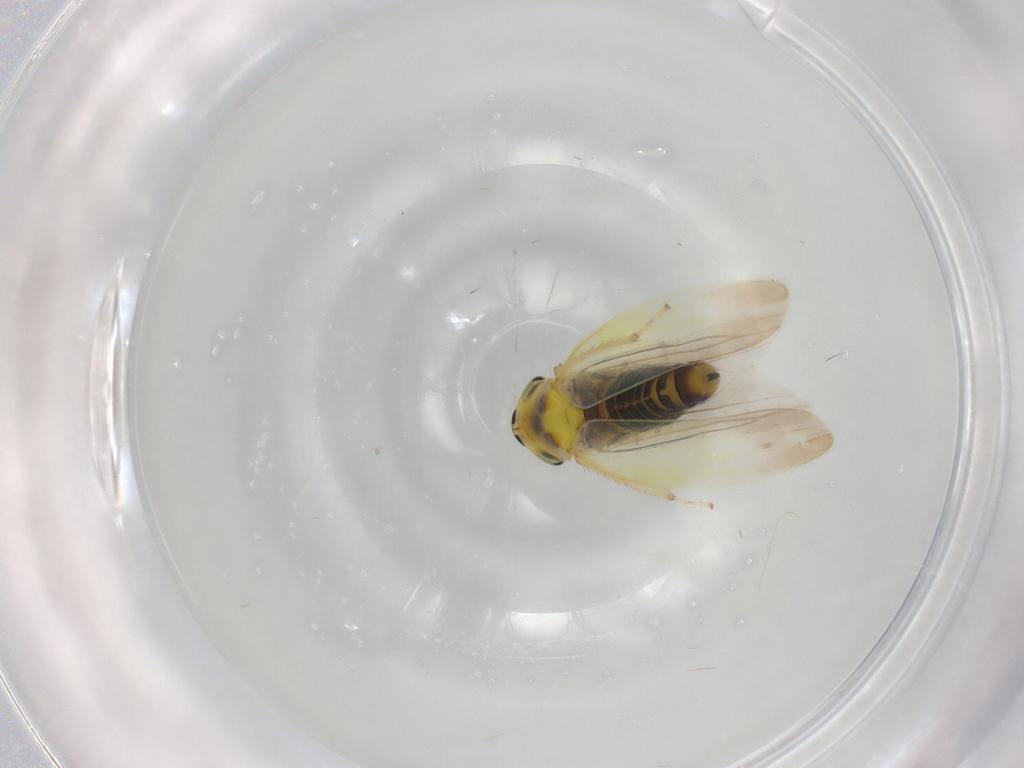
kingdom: Animalia
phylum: Arthropoda
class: Insecta
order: Hemiptera
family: Cicadellidae
